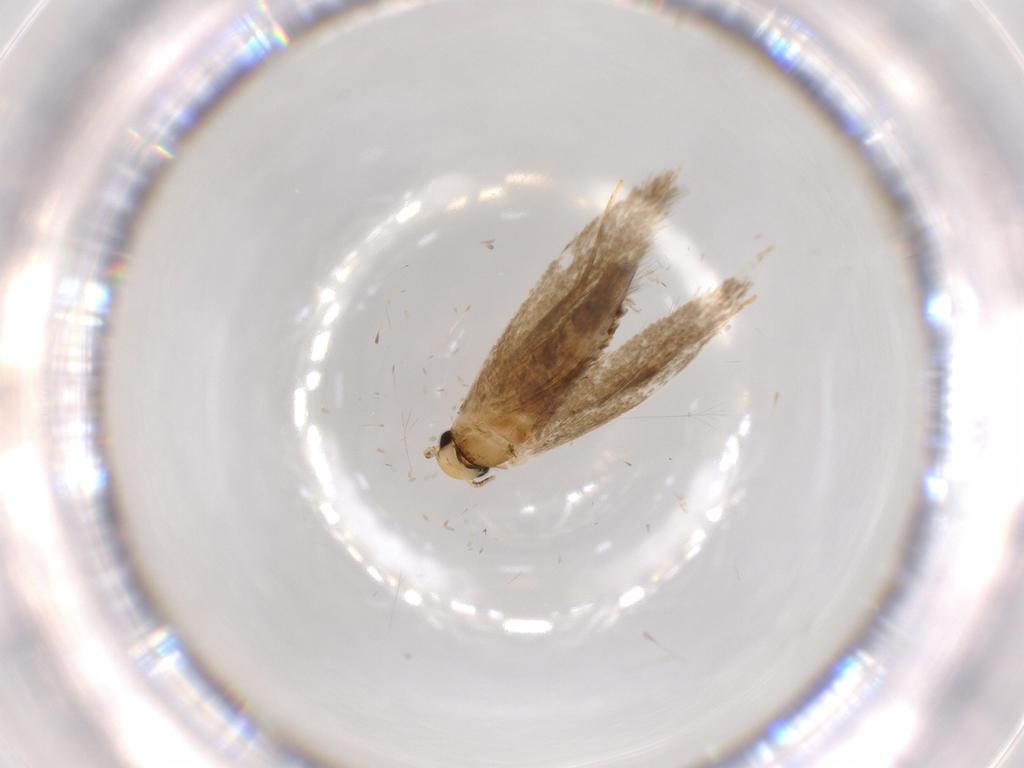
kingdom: Animalia
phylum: Arthropoda
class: Insecta
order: Lepidoptera
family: Tineidae
